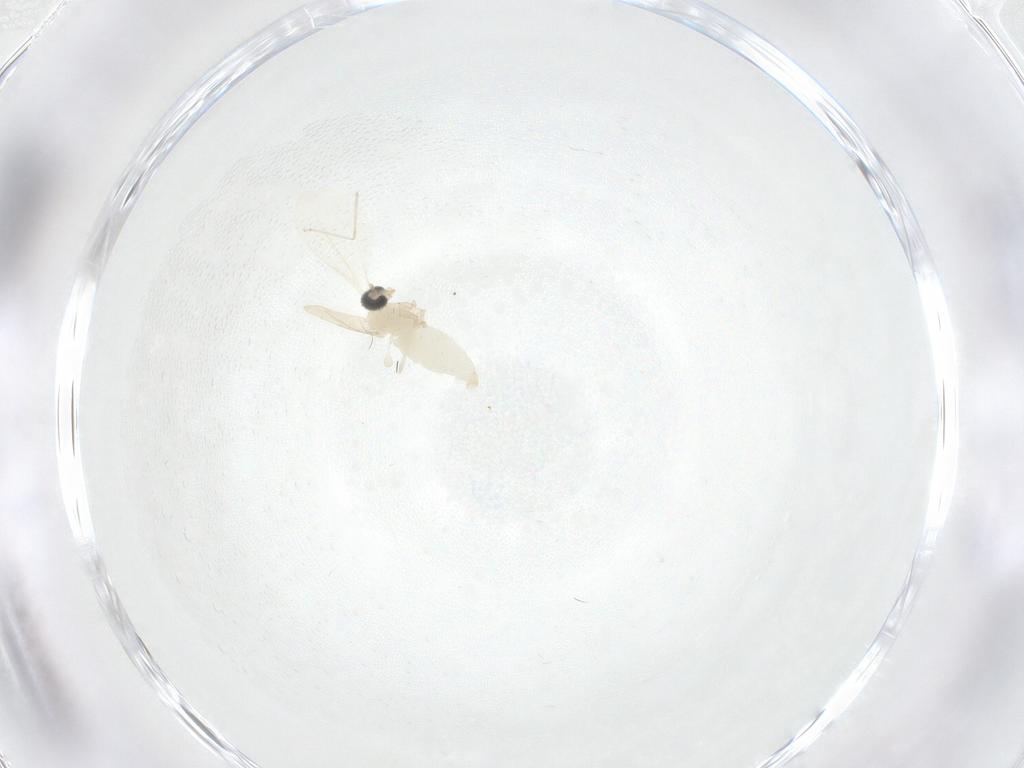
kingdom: Animalia
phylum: Arthropoda
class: Insecta
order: Diptera
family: Cecidomyiidae
